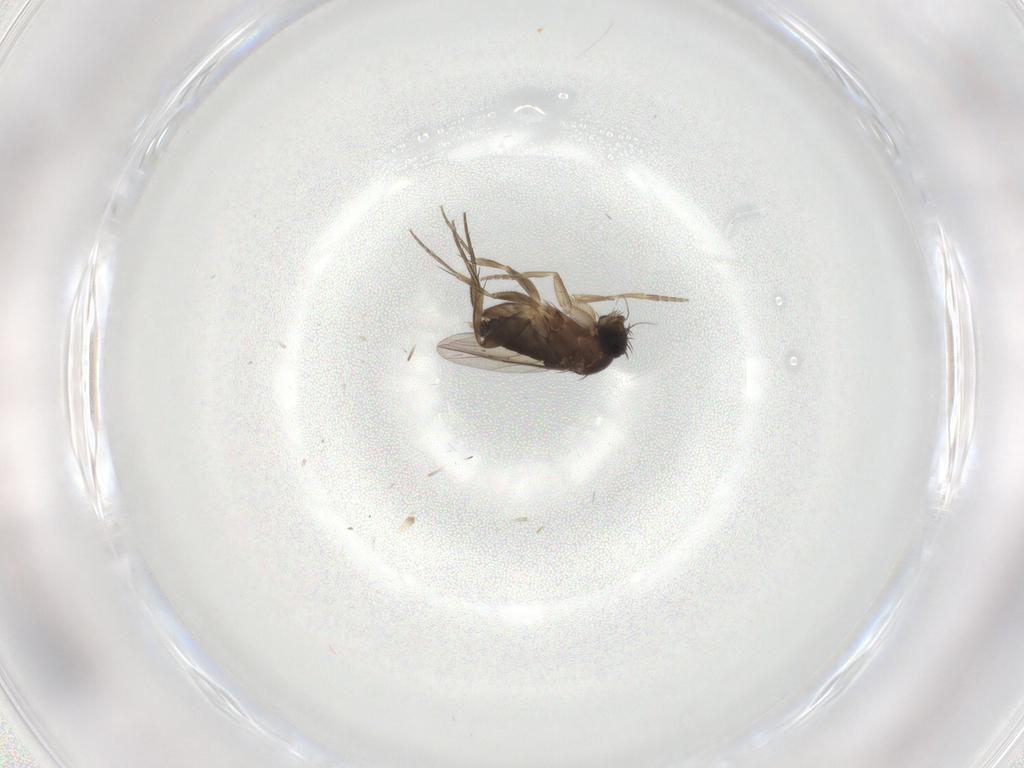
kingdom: Animalia
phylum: Arthropoda
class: Insecta
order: Diptera
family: Phoridae
